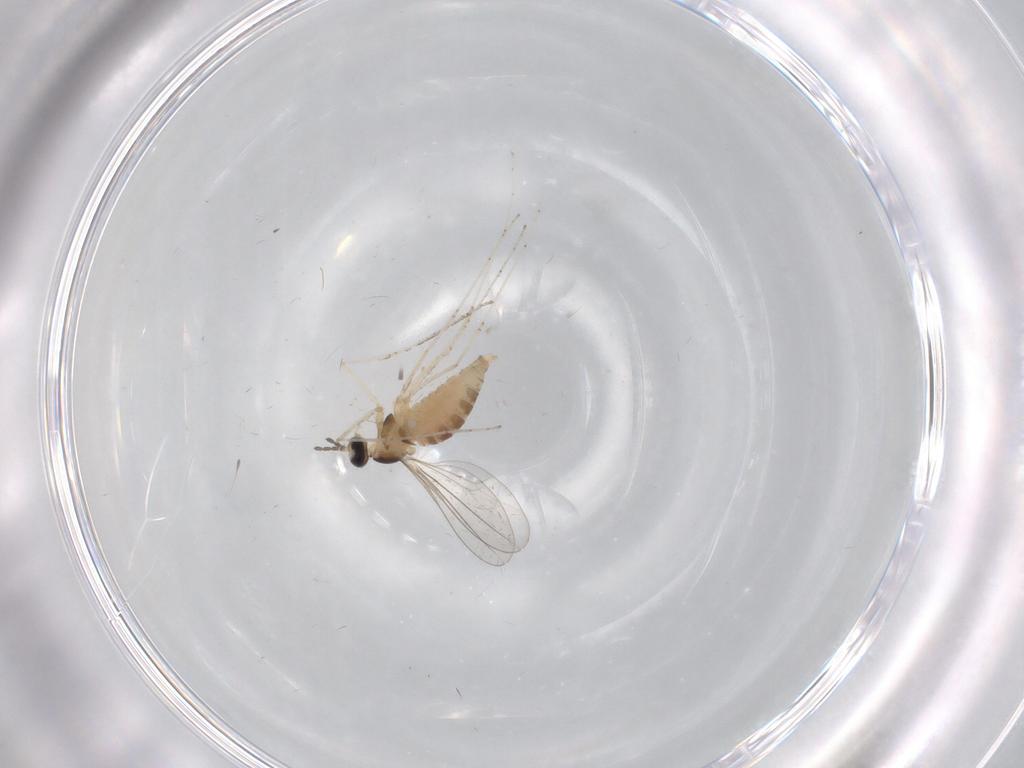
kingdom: Animalia
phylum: Arthropoda
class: Insecta
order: Diptera
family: Cecidomyiidae
